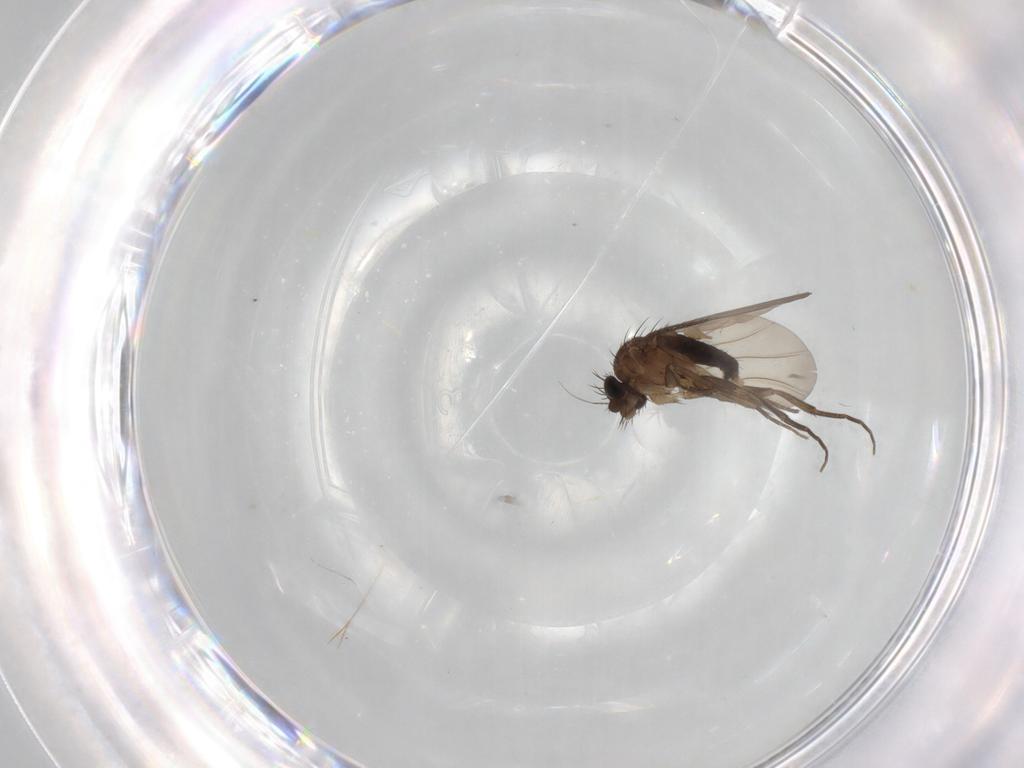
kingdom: Animalia
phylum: Arthropoda
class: Insecta
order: Diptera
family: Phoridae
